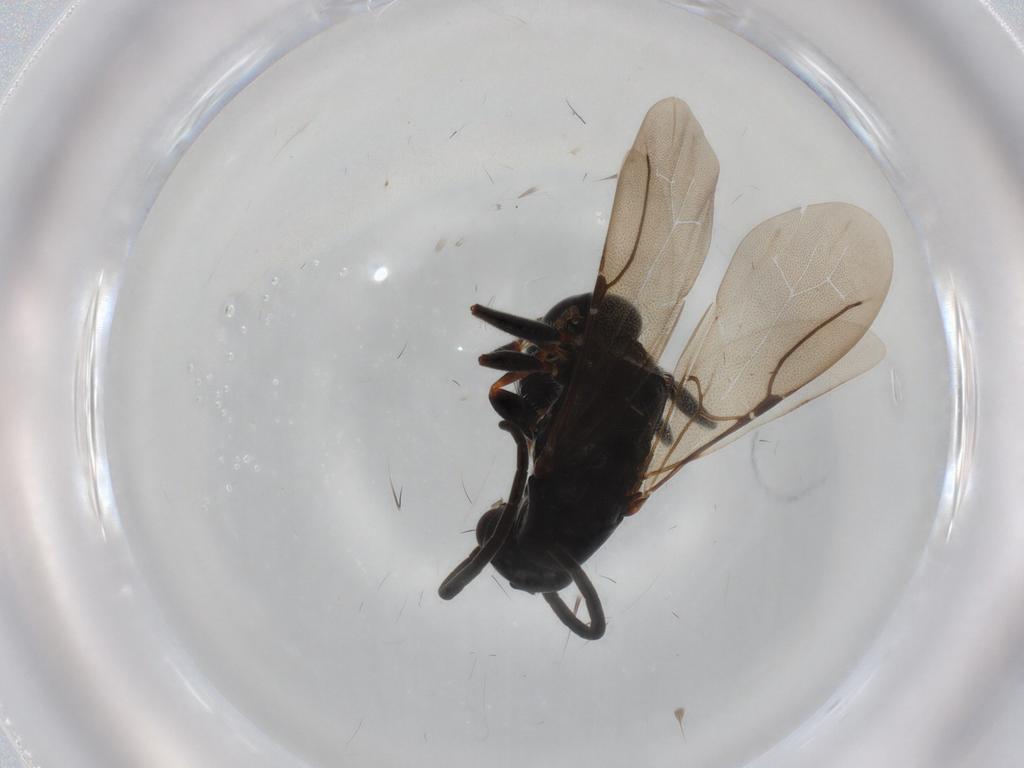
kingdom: Animalia
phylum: Arthropoda
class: Insecta
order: Hymenoptera
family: Bethylidae
